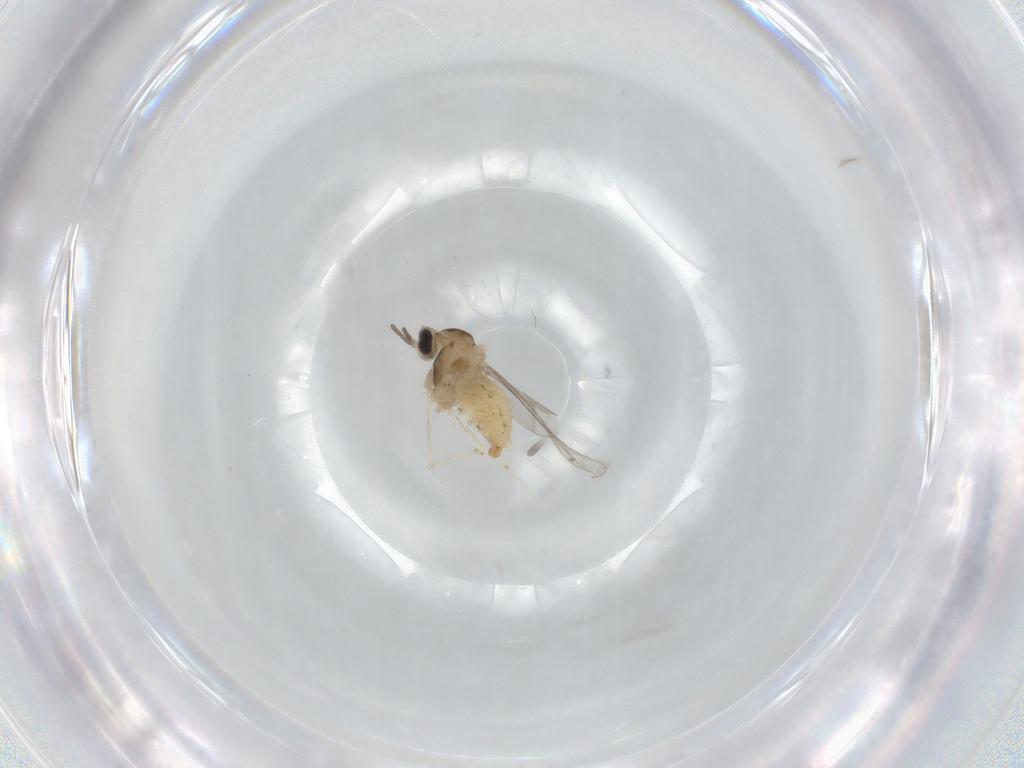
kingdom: Animalia
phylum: Arthropoda
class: Insecta
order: Diptera
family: Cecidomyiidae
